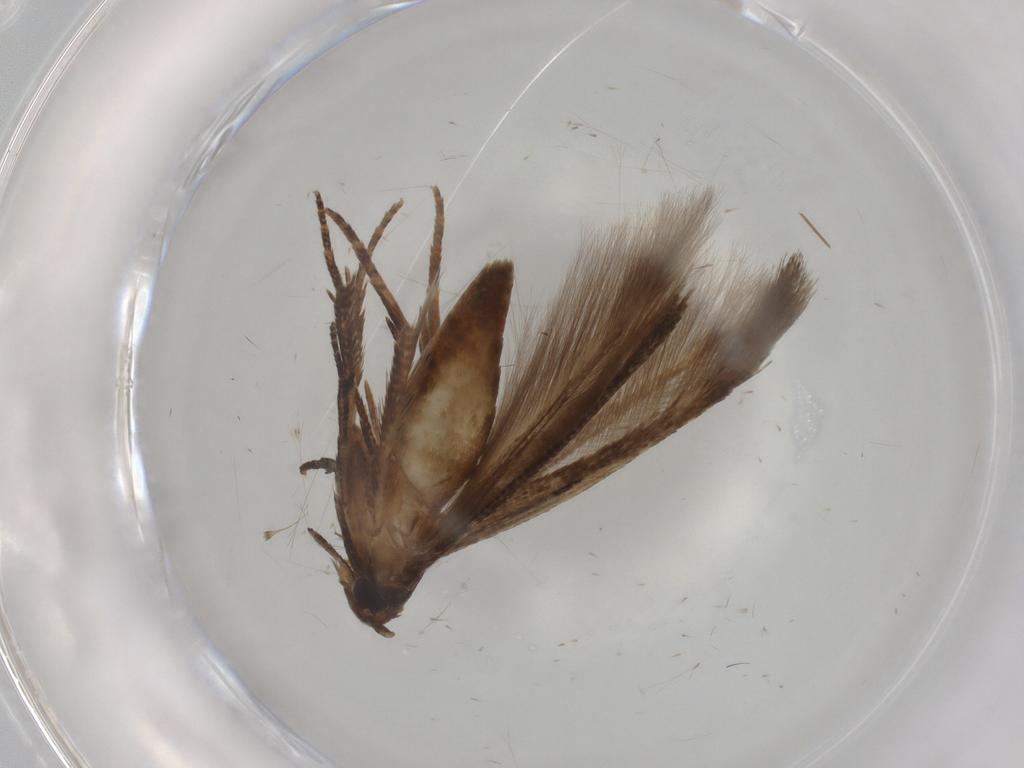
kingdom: Animalia
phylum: Arthropoda
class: Insecta
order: Lepidoptera
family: Cosmopterigidae
